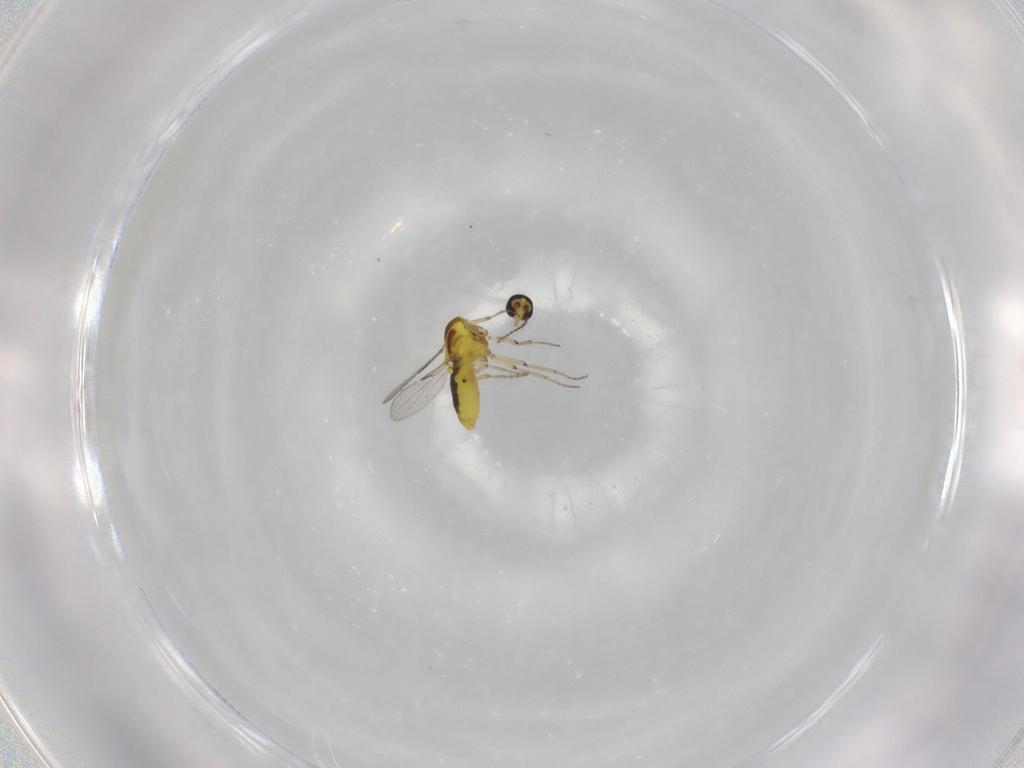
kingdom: Animalia
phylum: Arthropoda
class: Insecta
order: Diptera
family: Ceratopogonidae
